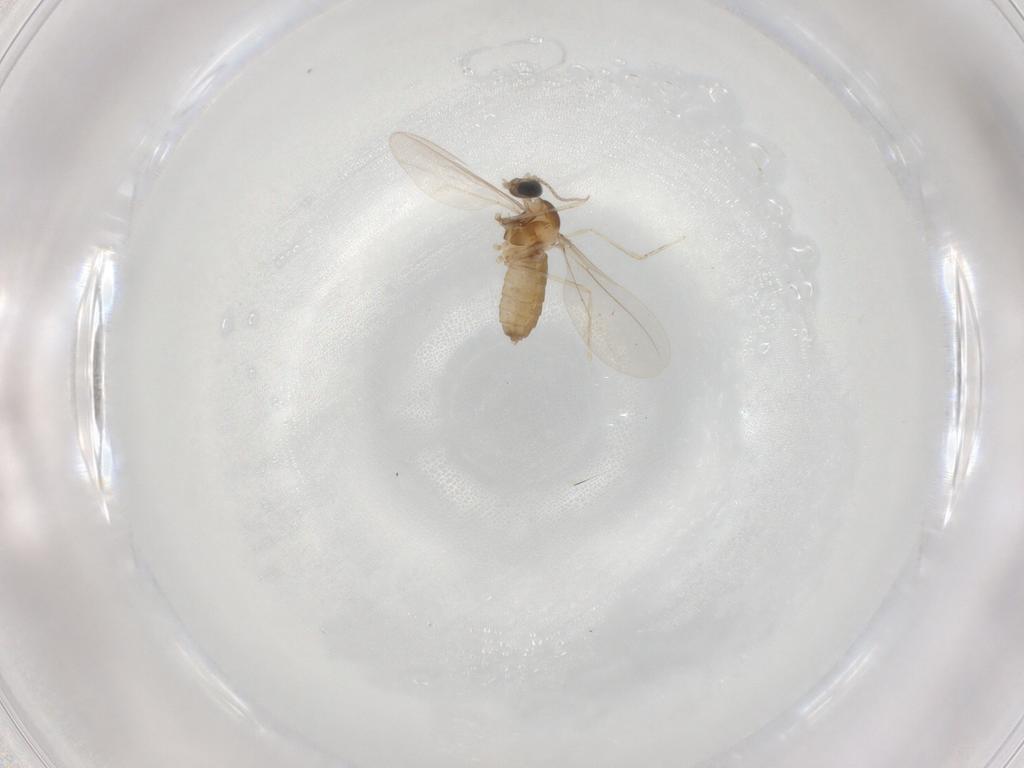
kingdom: Animalia
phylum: Arthropoda
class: Insecta
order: Diptera
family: Cecidomyiidae
